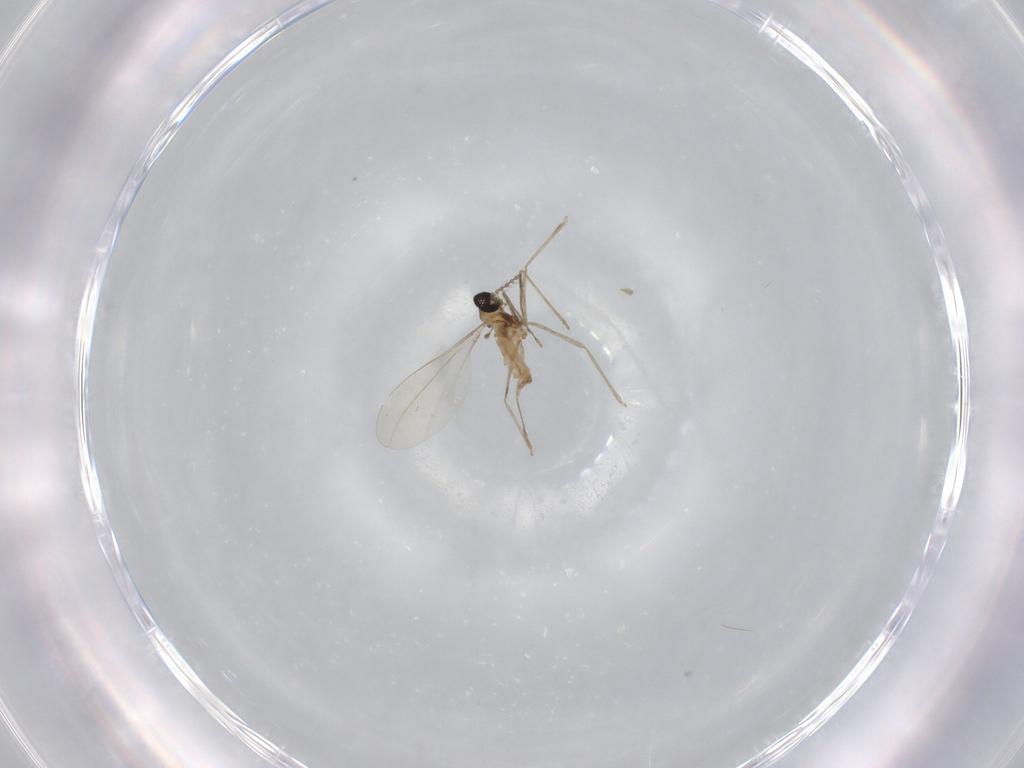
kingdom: Animalia
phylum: Arthropoda
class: Insecta
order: Diptera
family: Cecidomyiidae
